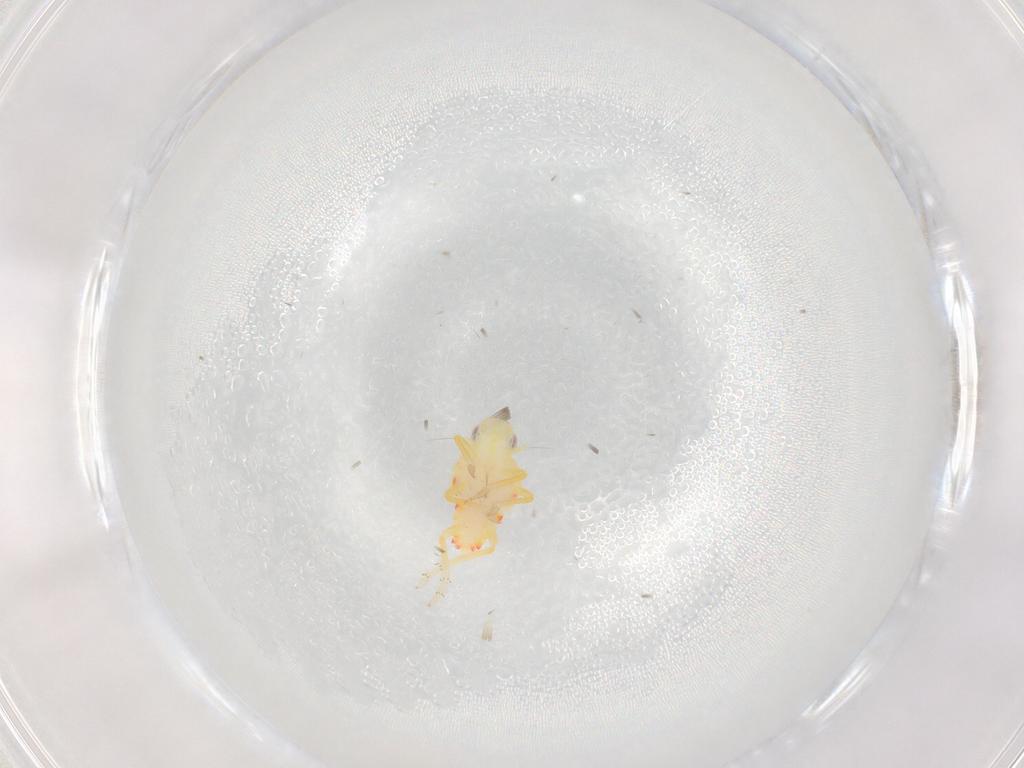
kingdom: Animalia
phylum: Arthropoda
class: Insecta
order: Hemiptera
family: Tropiduchidae
